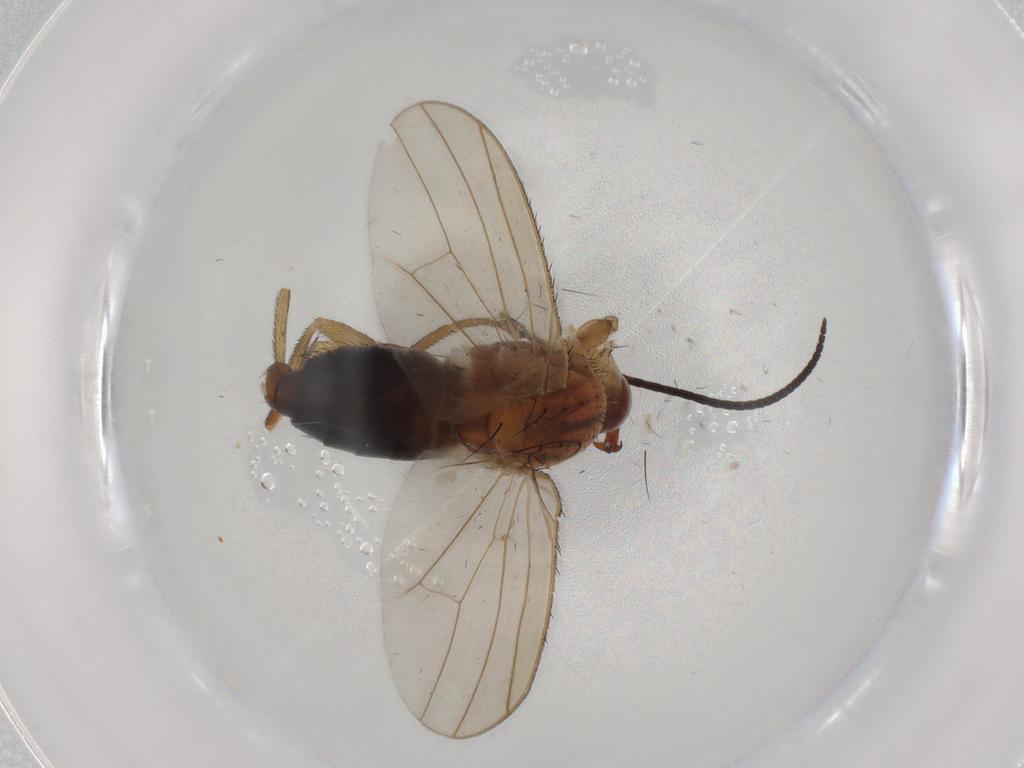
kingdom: Animalia
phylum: Arthropoda
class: Insecta
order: Diptera
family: Heleomyzidae
